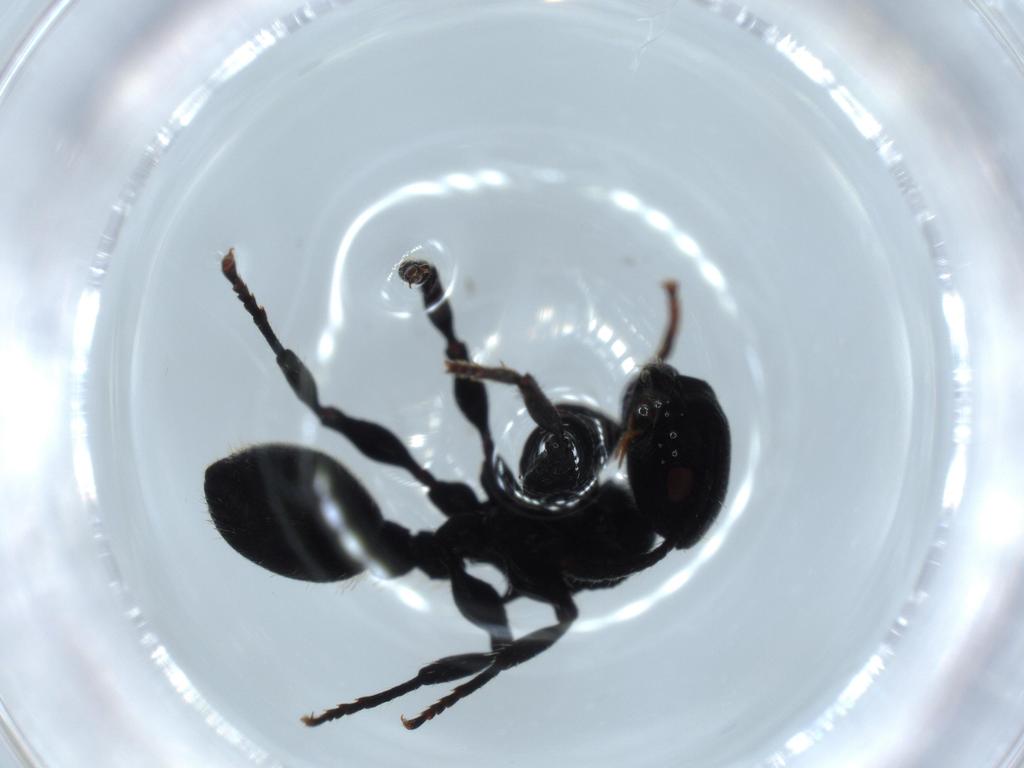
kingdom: Animalia
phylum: Arthropoda
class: Insecta
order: Hymenoptera
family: Formicidae
